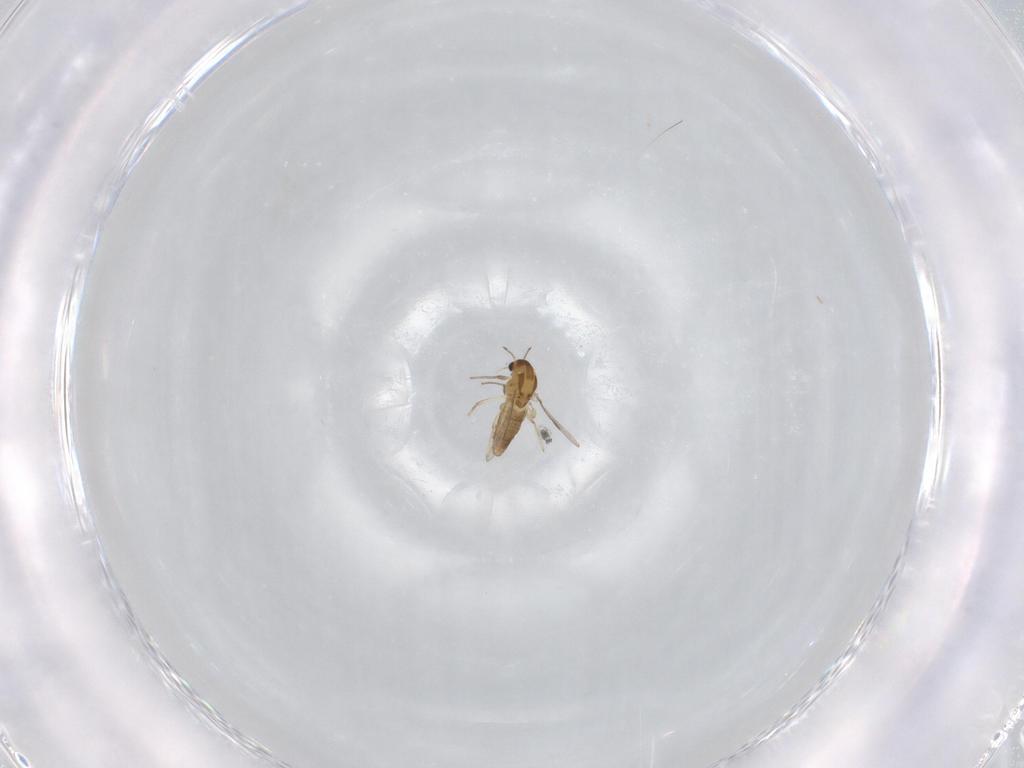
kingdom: Animalia
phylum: Arthropoda
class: Insecta
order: Diptera
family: Chironomidae
